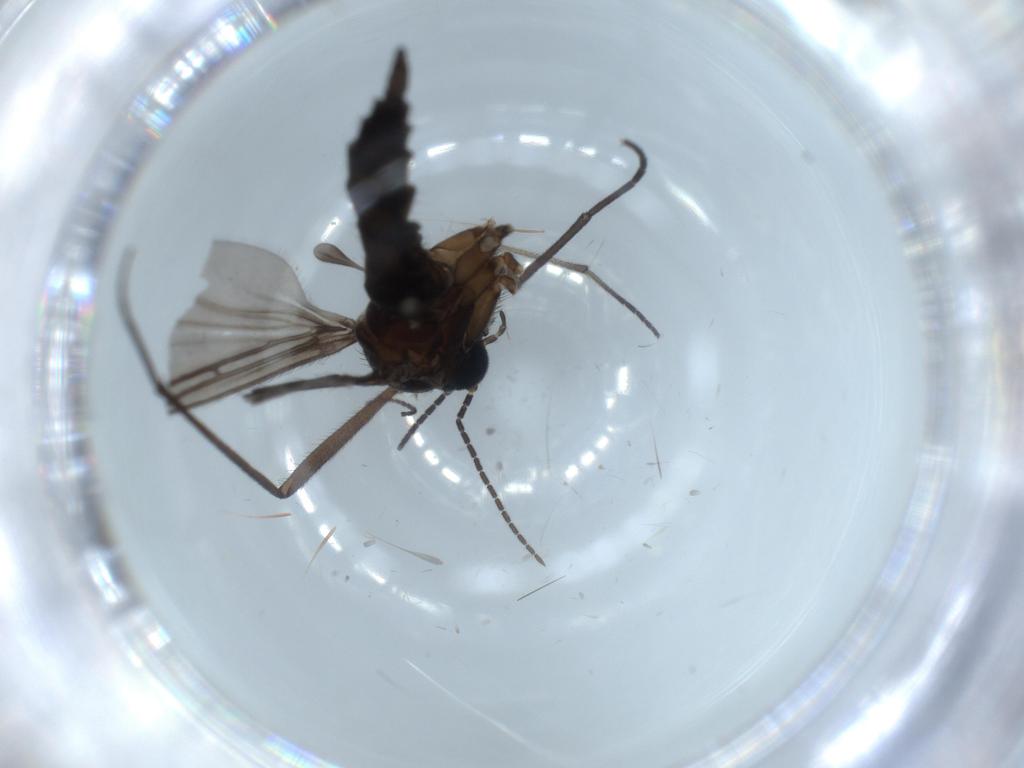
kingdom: Animalia
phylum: Arthropoda
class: Insecta
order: Diptera
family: Sciaridae
